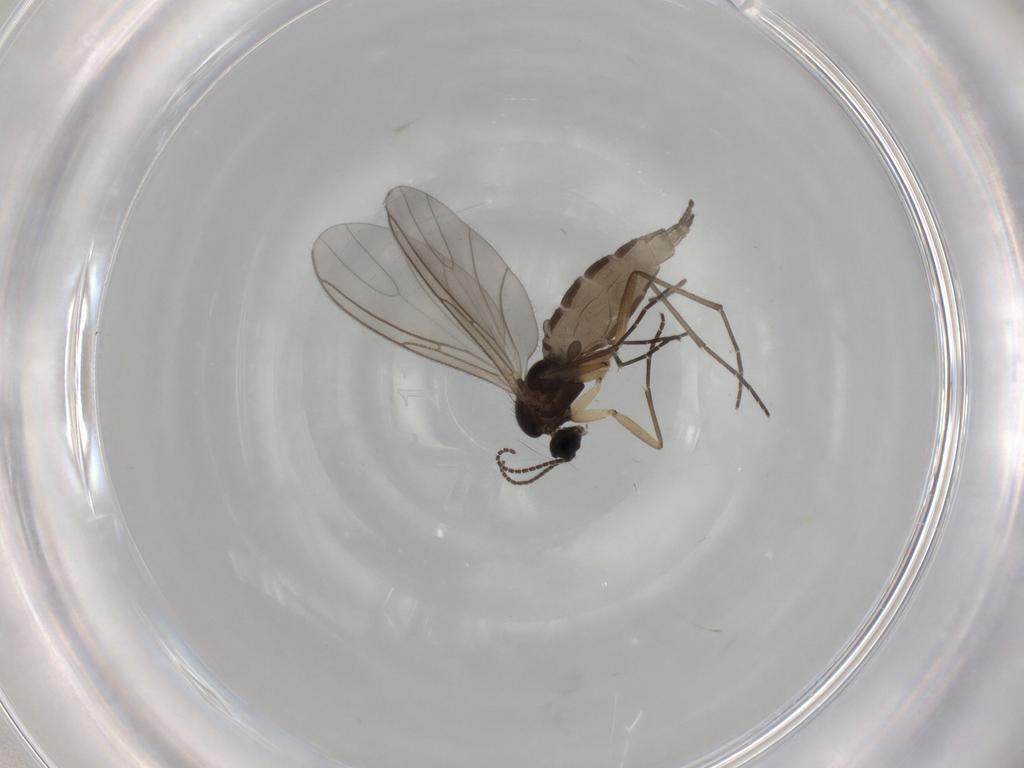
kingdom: Animalia
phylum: Arthropoda
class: Insecta
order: Diptera
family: Sciaridae
